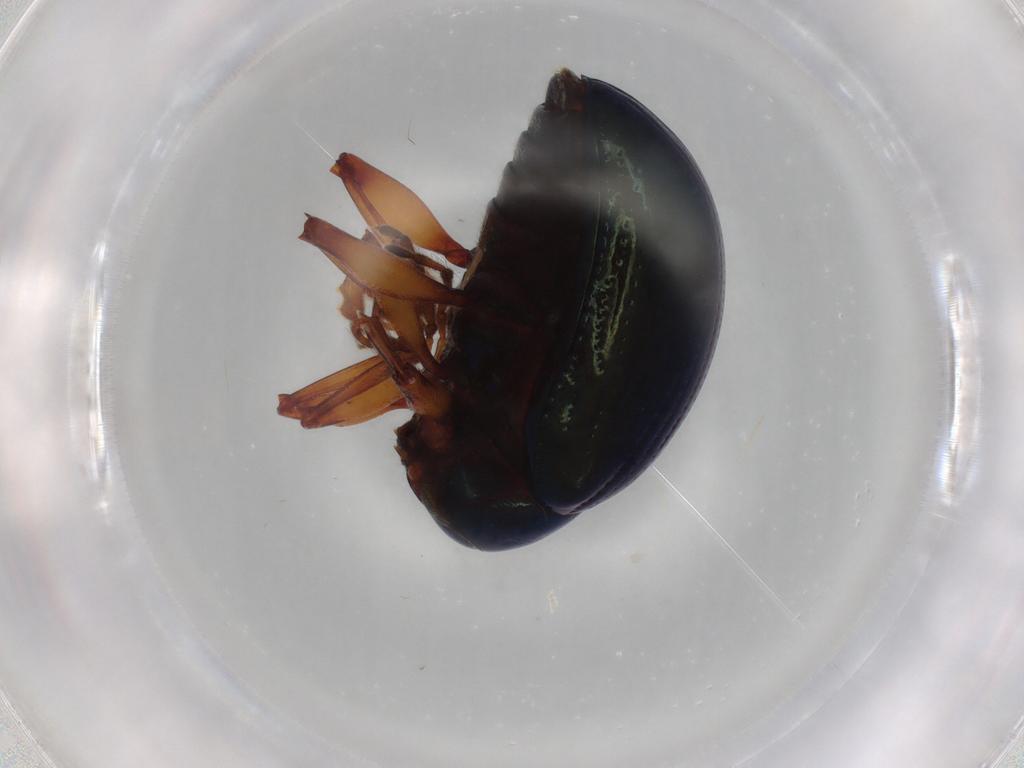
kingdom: Animalia
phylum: Arthropoda
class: Insecta
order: Coleoptera
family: Chrysomelidae
